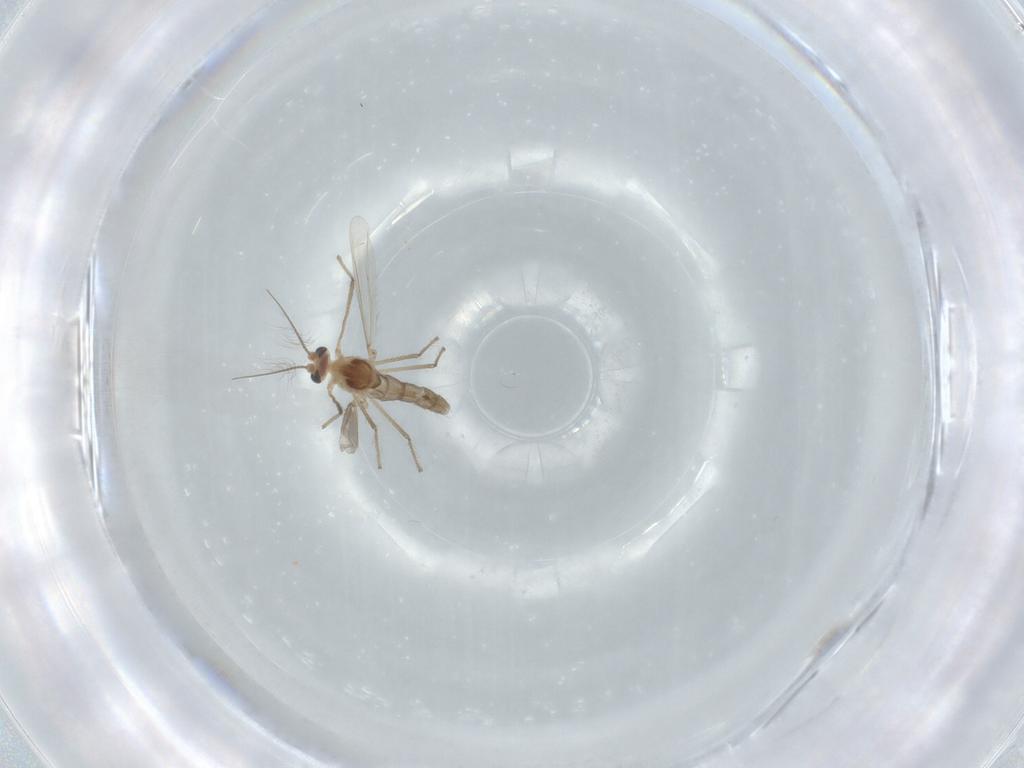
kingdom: Animalia
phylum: Arthropoda
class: Insecta
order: Diptera
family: Chironomidae
